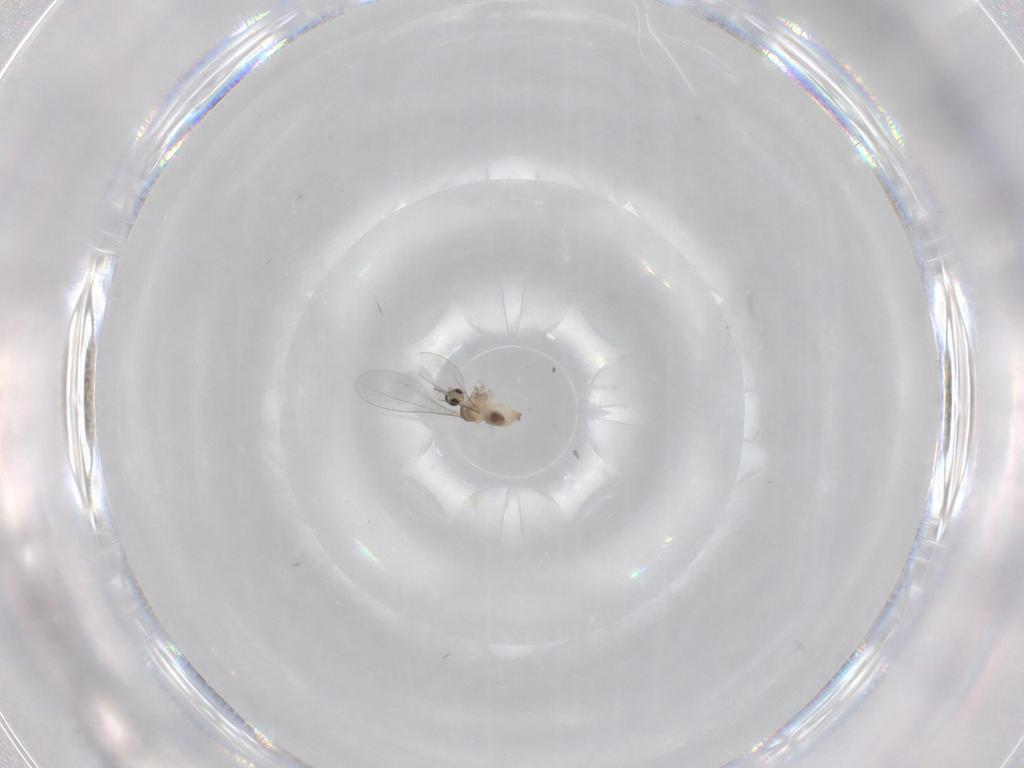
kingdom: Animalia
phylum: Arthropoda
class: Insecta
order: Diptera
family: Cecidomyiidae
